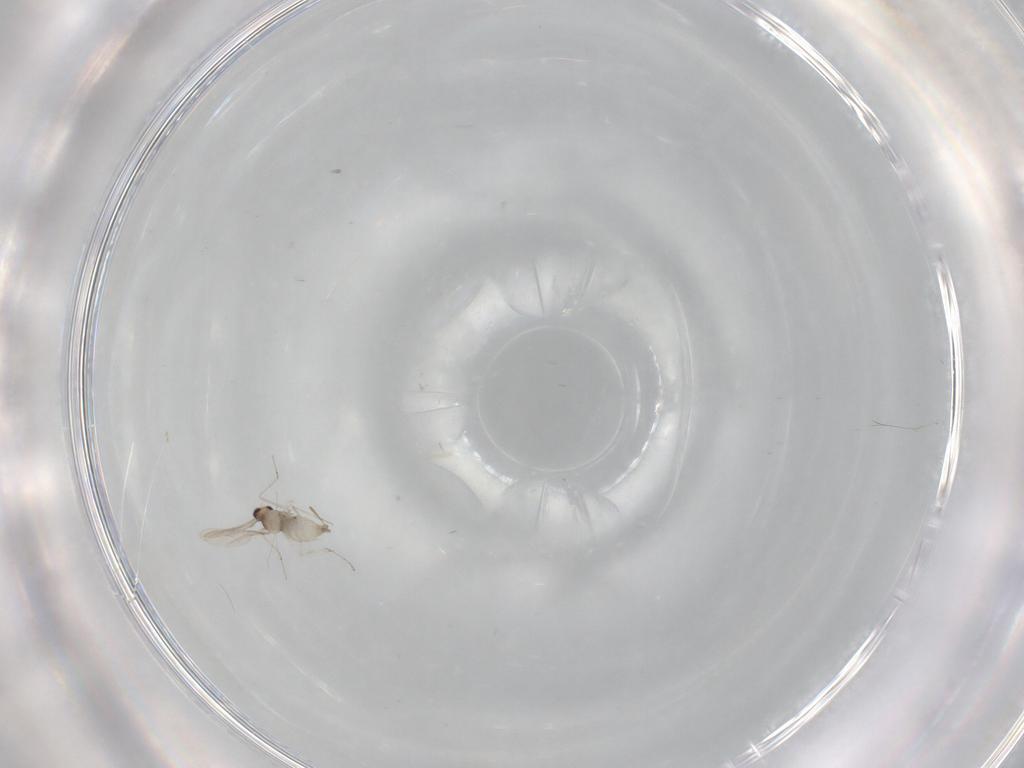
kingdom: Animalia
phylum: Arthropoda
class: Insecta
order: Diptera
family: Cecidomyiidae
